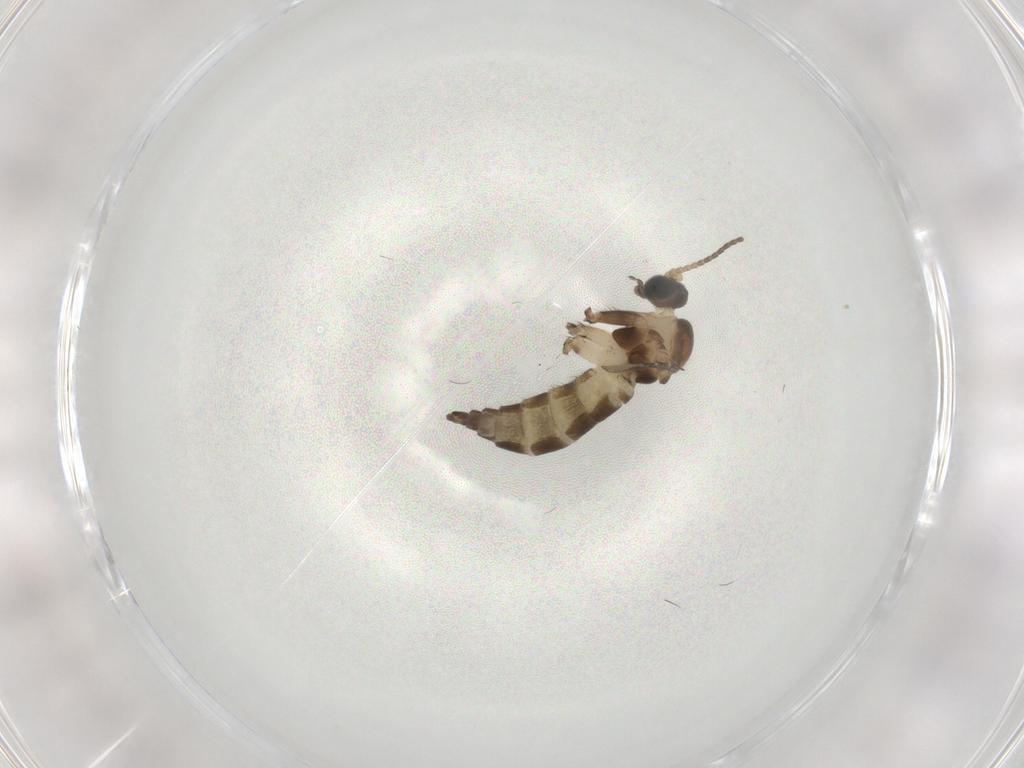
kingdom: Animalia
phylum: Arthropoda
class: Insecta
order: Diptera
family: Sciaridae
